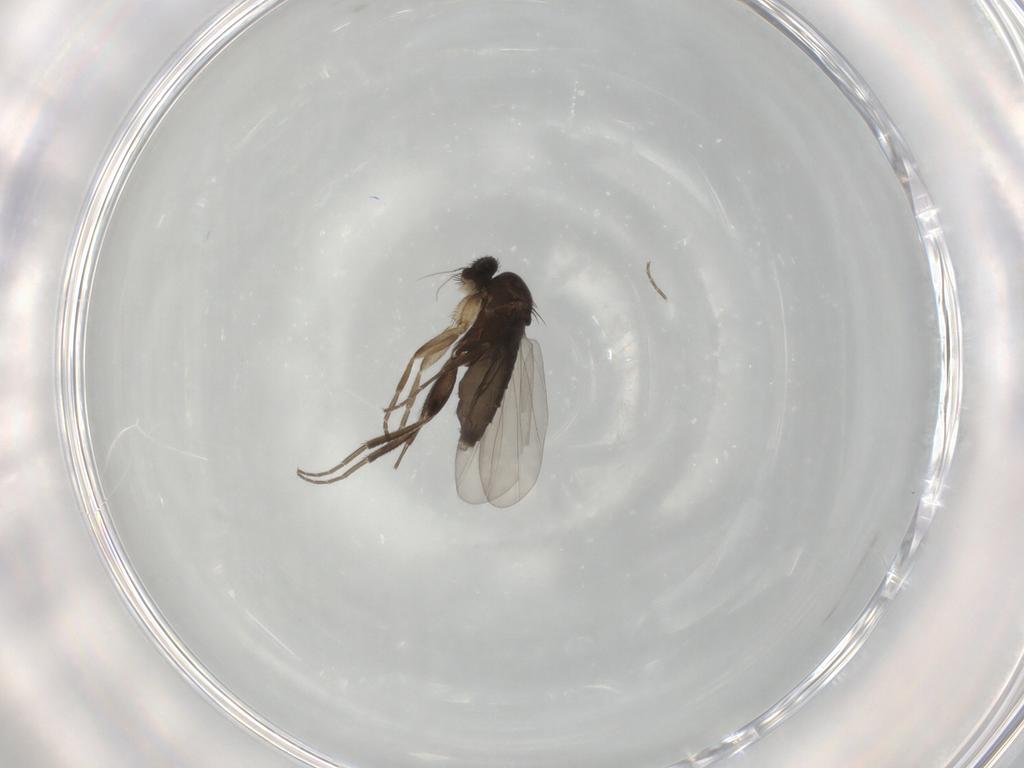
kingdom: Animalia
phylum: Arthropoda
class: Insecta
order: Diptera
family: Phoridae
